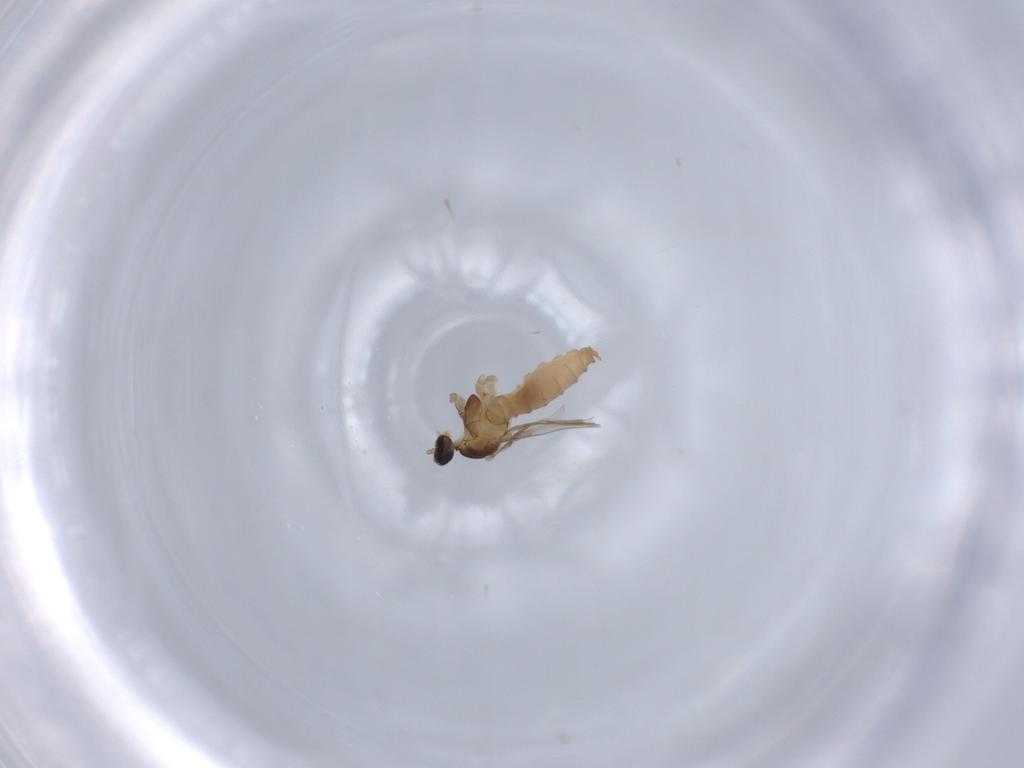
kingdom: Animalia
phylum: Arthropoda
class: Insecta
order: Diptera
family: Cecidomyiidae
